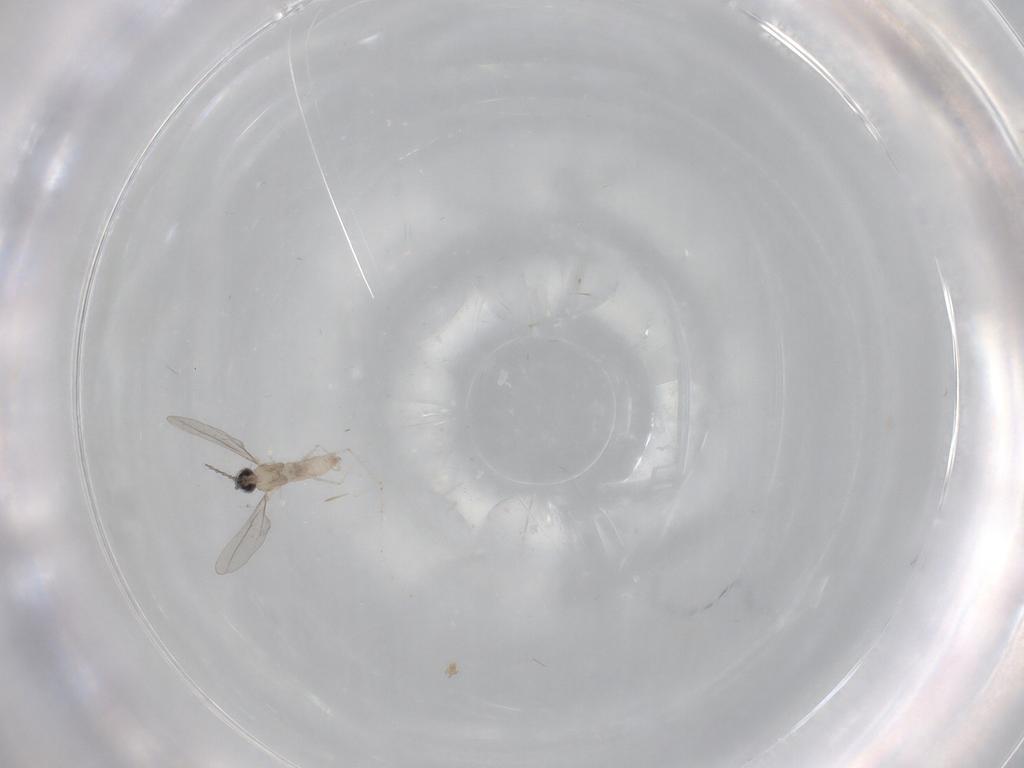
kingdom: Animalia
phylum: Arthropoda
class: Insecta
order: Diptera
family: Cecidomyiidae
